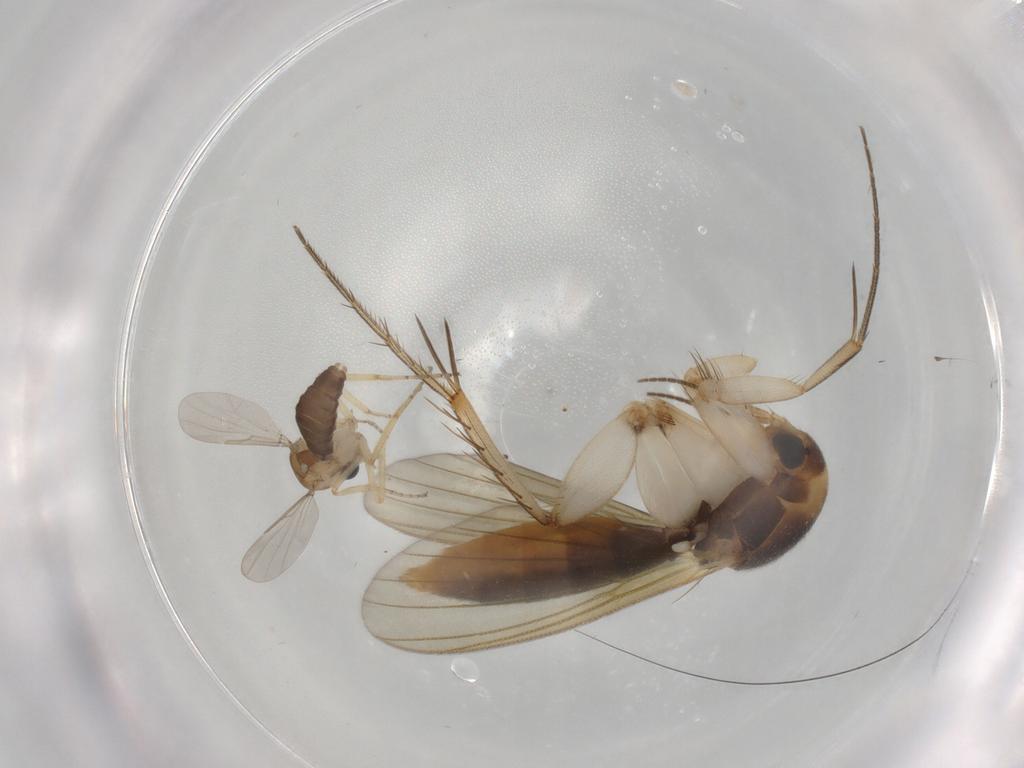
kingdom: Animalia
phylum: Arthropoda
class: Insecta
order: Diptera
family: Mycetophilidae
